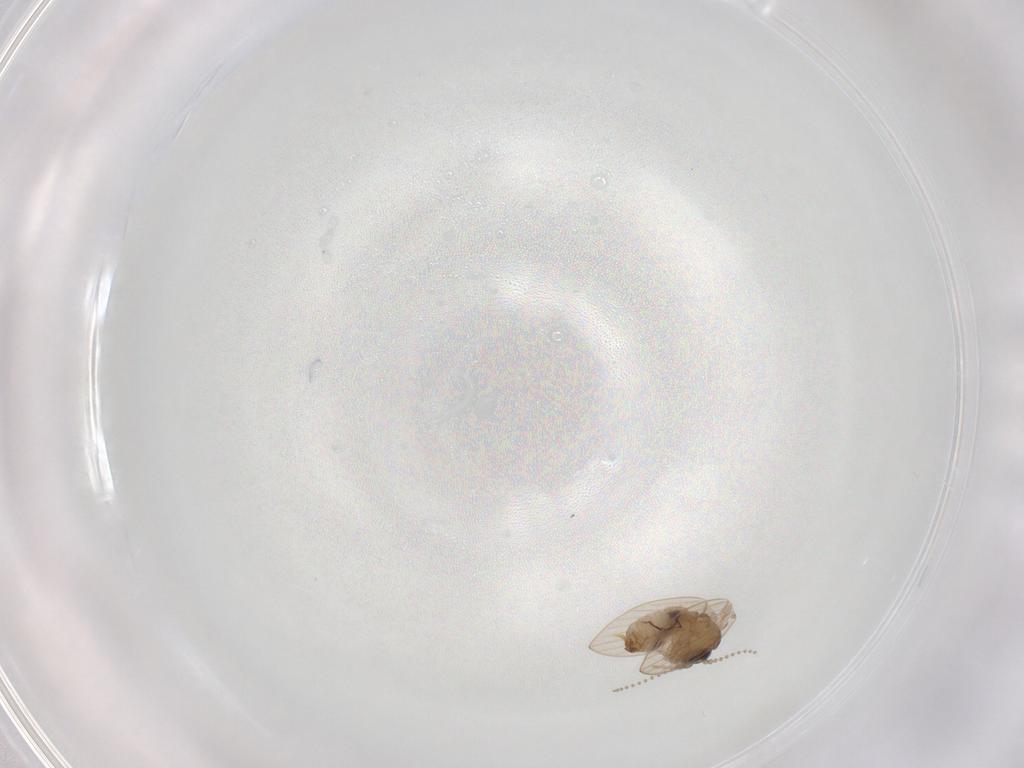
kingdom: Animalia
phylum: Arthropoda
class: Insecta
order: Diptera
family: Psychodidae
